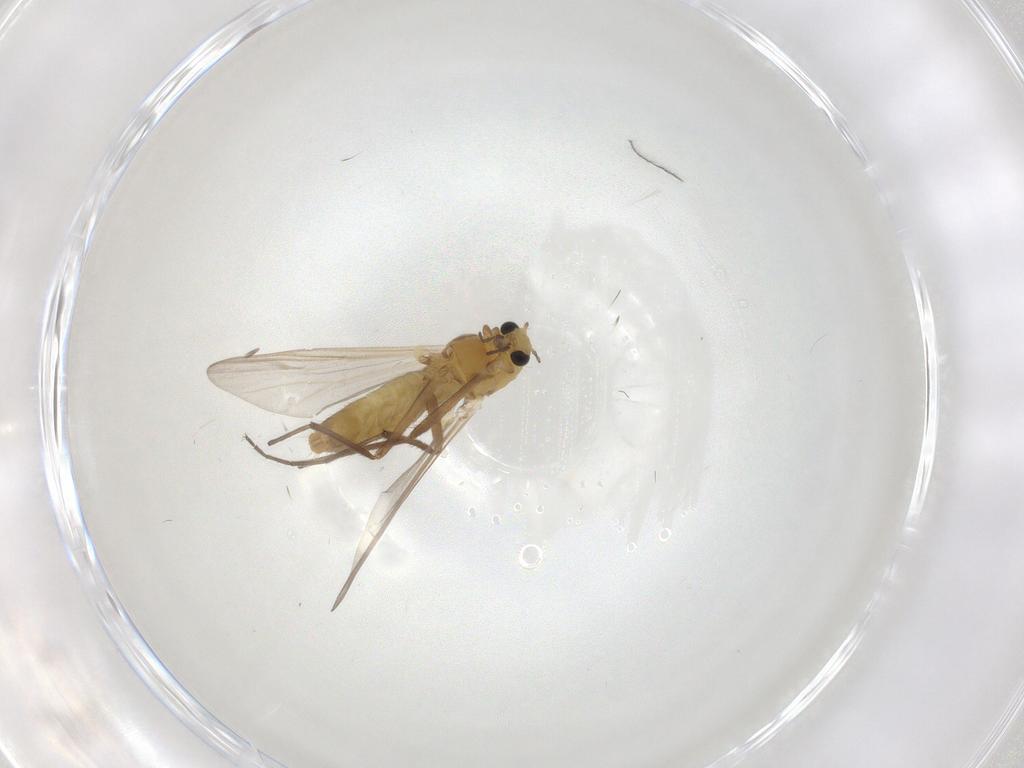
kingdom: Animalia
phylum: Arthropoda
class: Insecta
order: Diptera
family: Chironomidae
